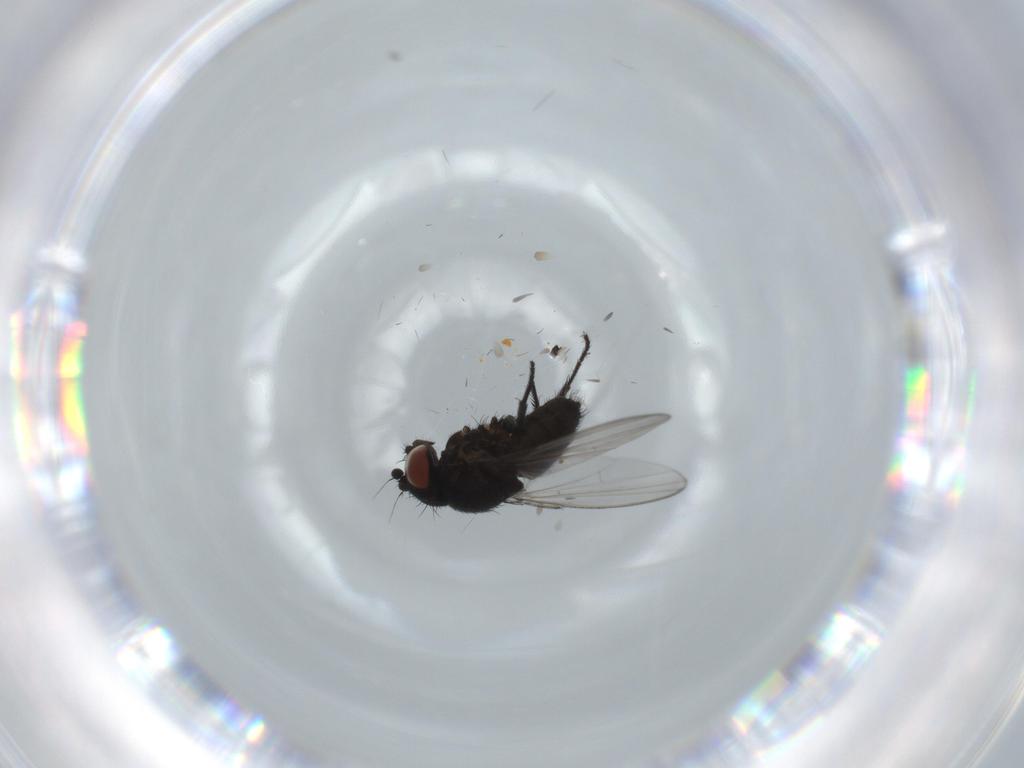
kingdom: Animalia
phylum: Arthropoda
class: Insecta
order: Diptera
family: Cecidomyiidae
